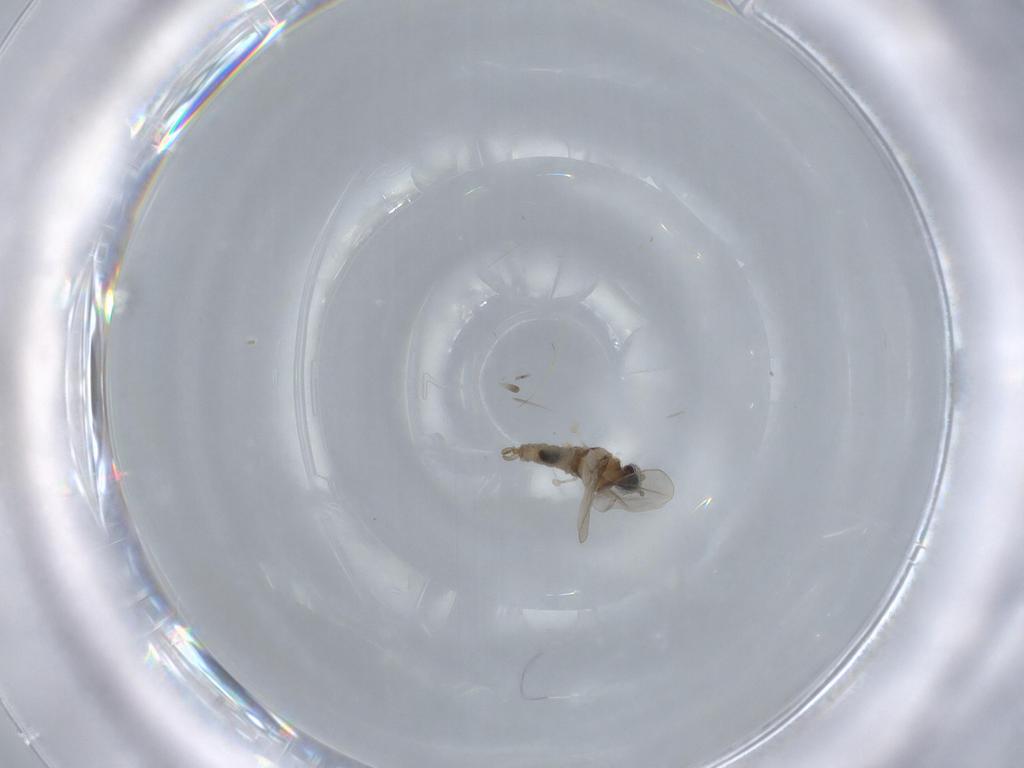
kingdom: Animalia
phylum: Arthropoda
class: Insecta
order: Diptera
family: Cecidomyiidae
